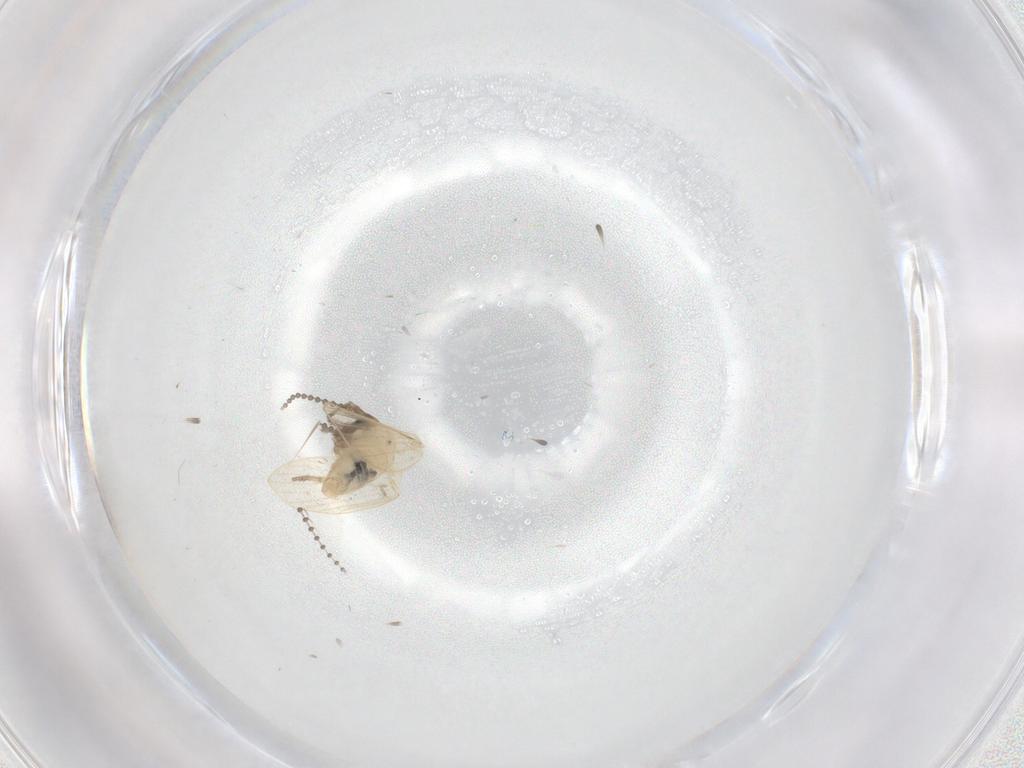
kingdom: Animalia
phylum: Arthropoda
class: Insecta
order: Diptera
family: Psychodidae
